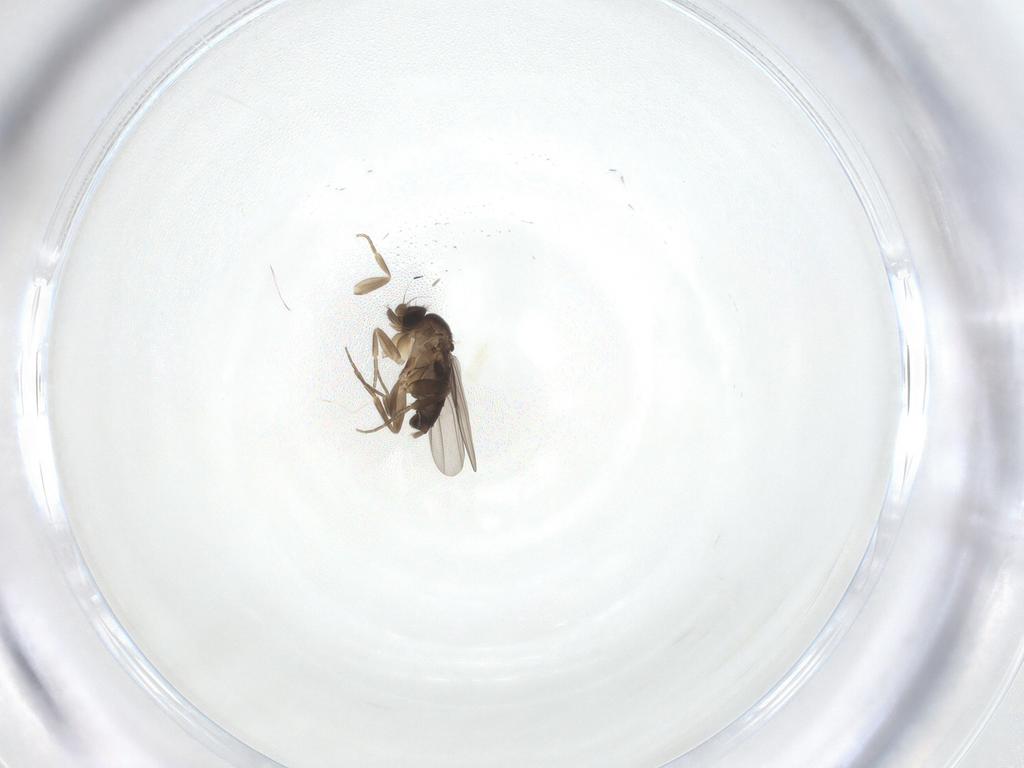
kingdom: Animalia
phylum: Arthropoda
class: Insecta
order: Diptera
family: Phoridae
